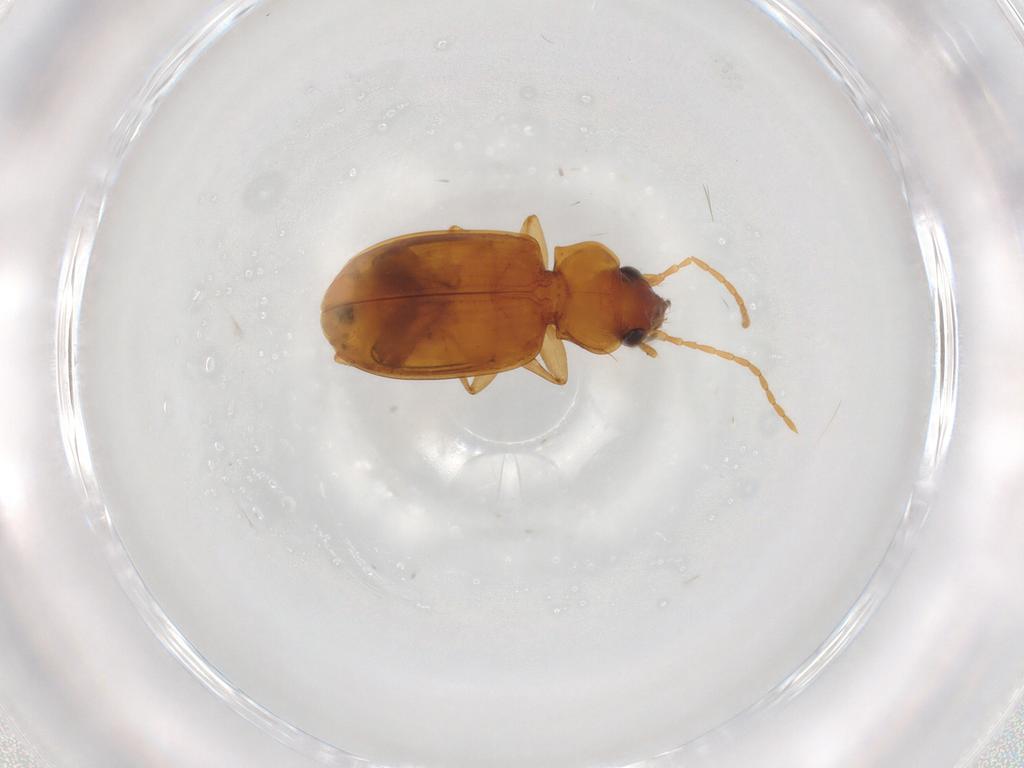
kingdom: Animalia
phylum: Arthropoda
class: Insecta
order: Coleoptera
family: Carabidae
